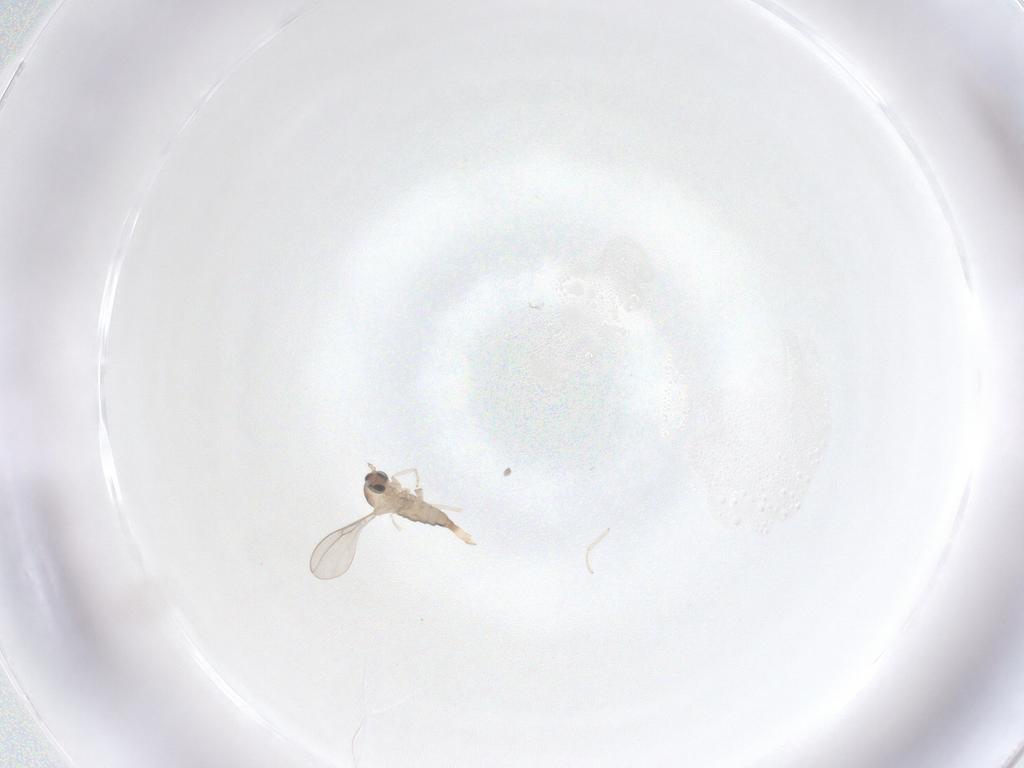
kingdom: Animalia
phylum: Arthropoda
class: Insecta
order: Diptera
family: Cecidomyiidae
